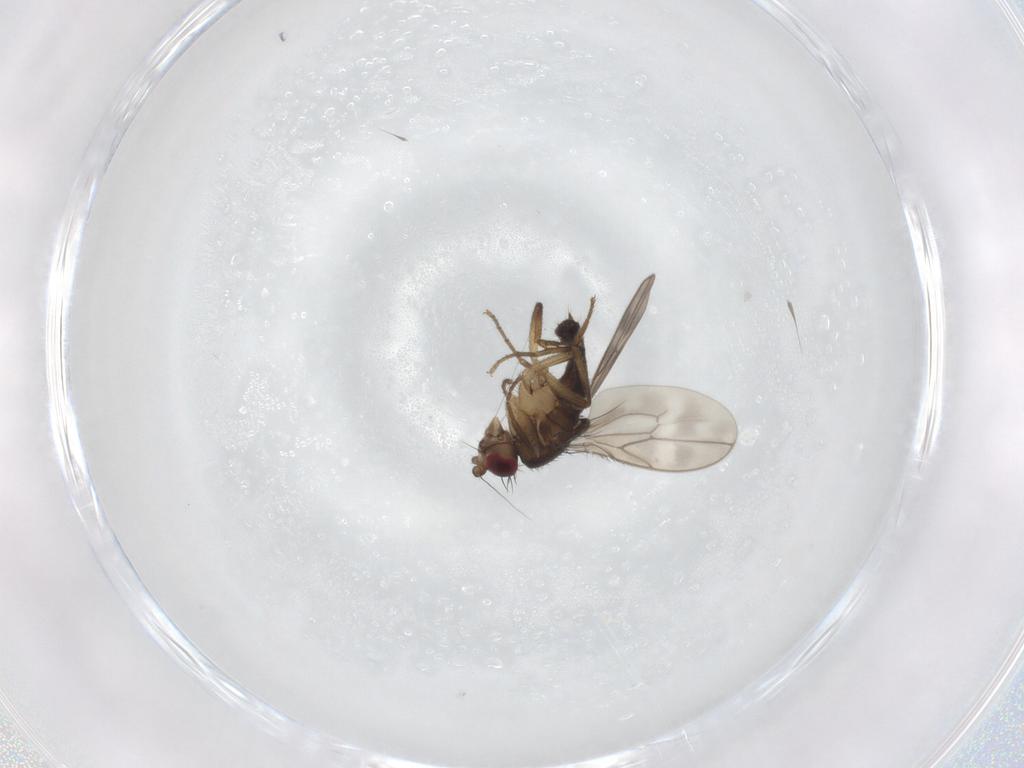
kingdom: Animalia
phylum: Arthropoda
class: Insecta
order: Diptera
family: Sphaeroceridae
